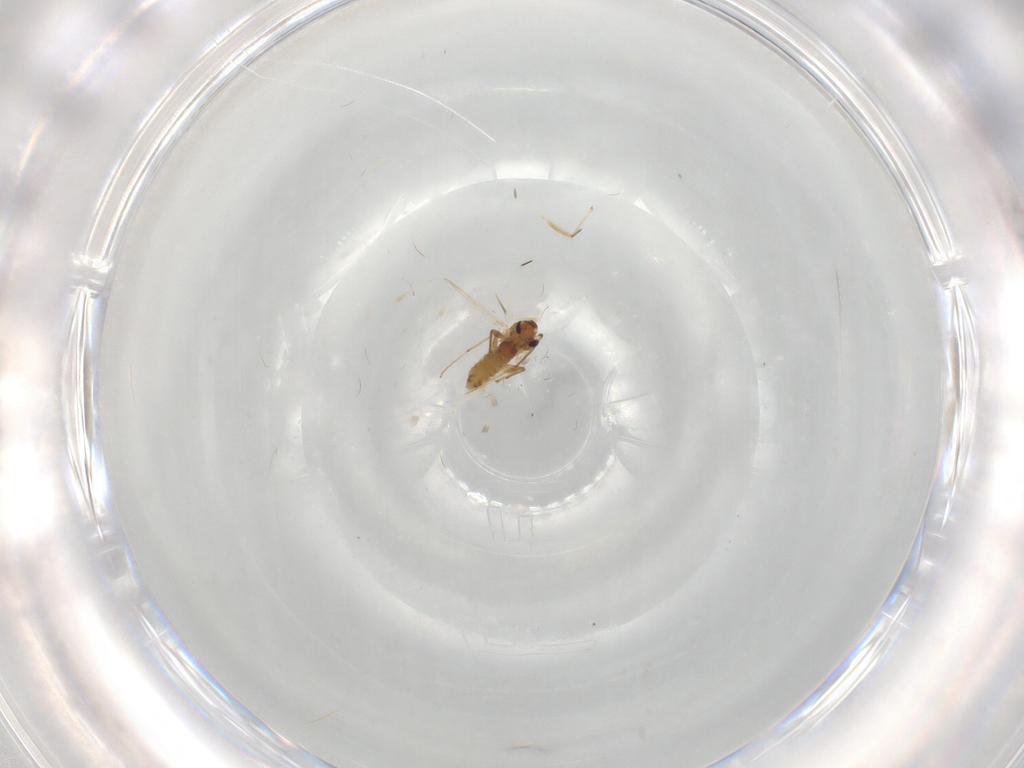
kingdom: Animalia
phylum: Arthropoda
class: Insecta
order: Diptera
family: Chironomidae
